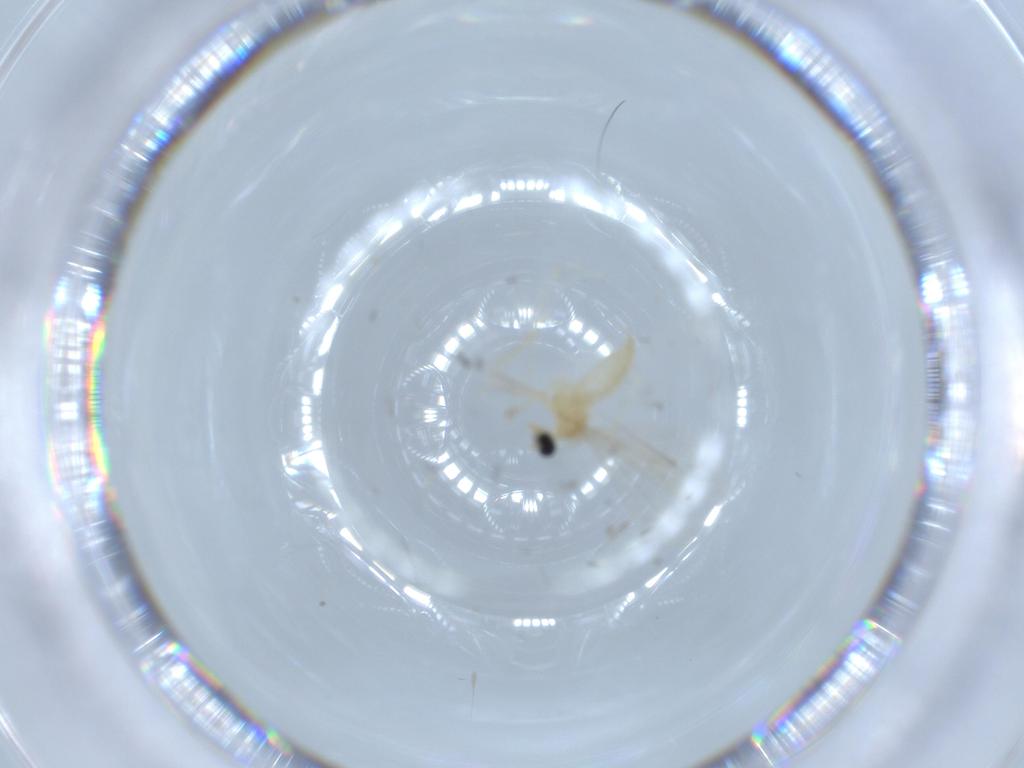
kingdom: Animalia
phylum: Arthropoda
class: Insecta
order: Diptera
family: Cecidomyiidae
